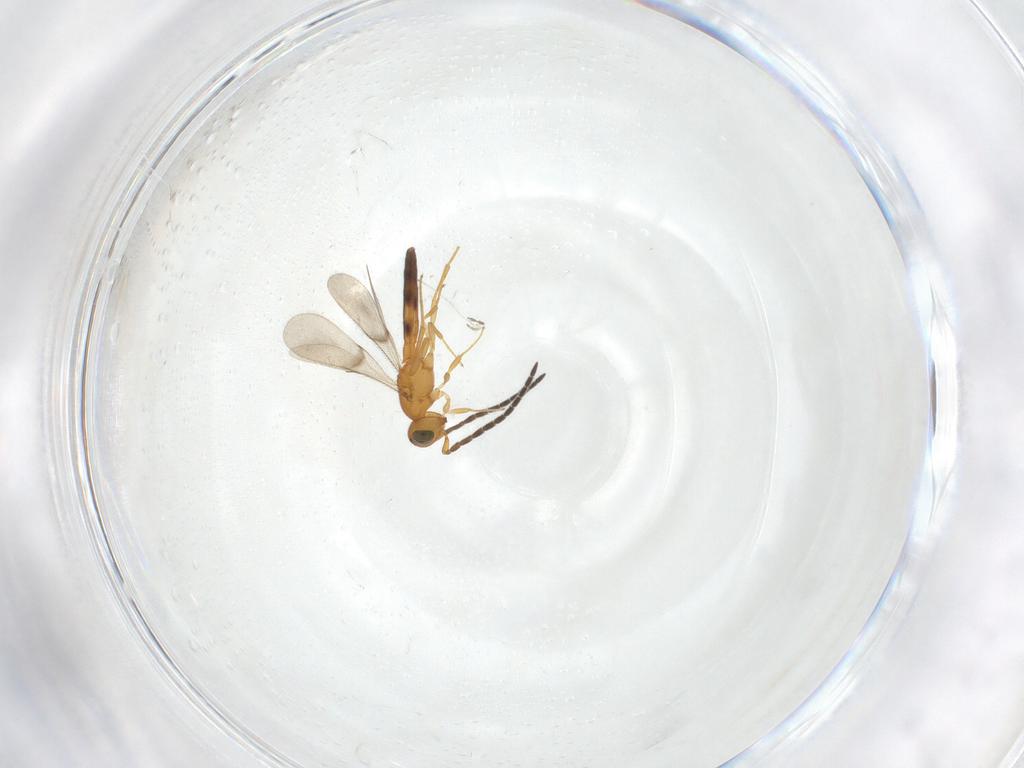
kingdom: Animalia
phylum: Arthropoda
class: Insecta
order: Hymenoptera
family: Scelionidae
